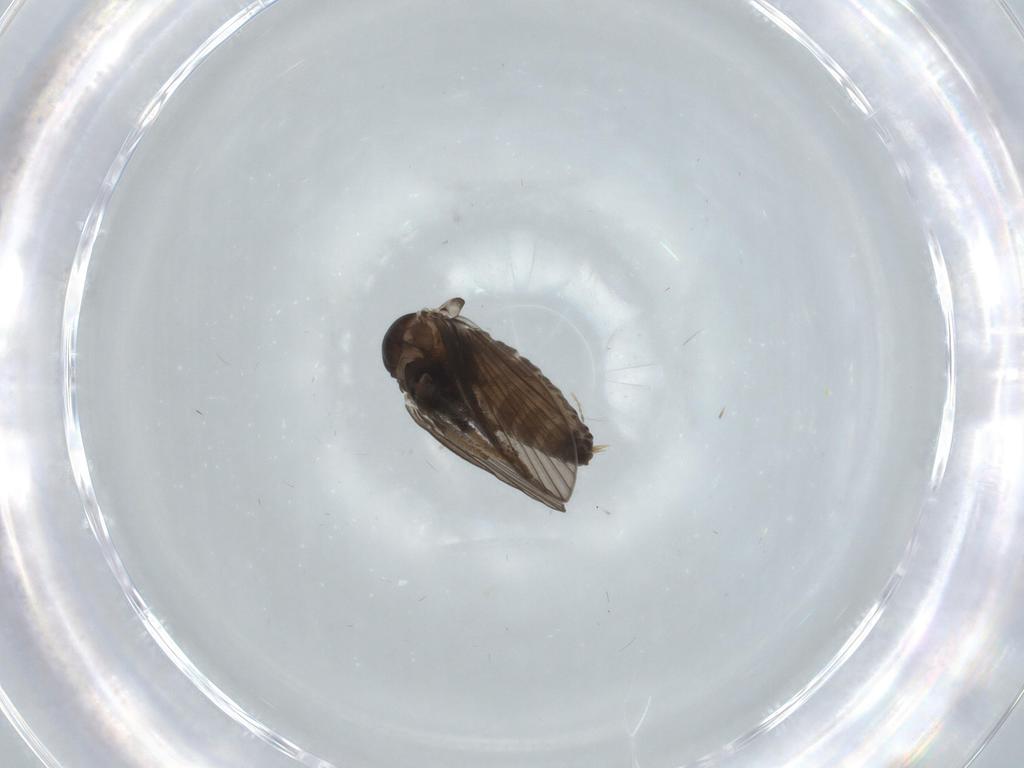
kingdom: Animalia
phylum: Arthropoda
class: Insecta
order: Diptera
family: Psychodidae
